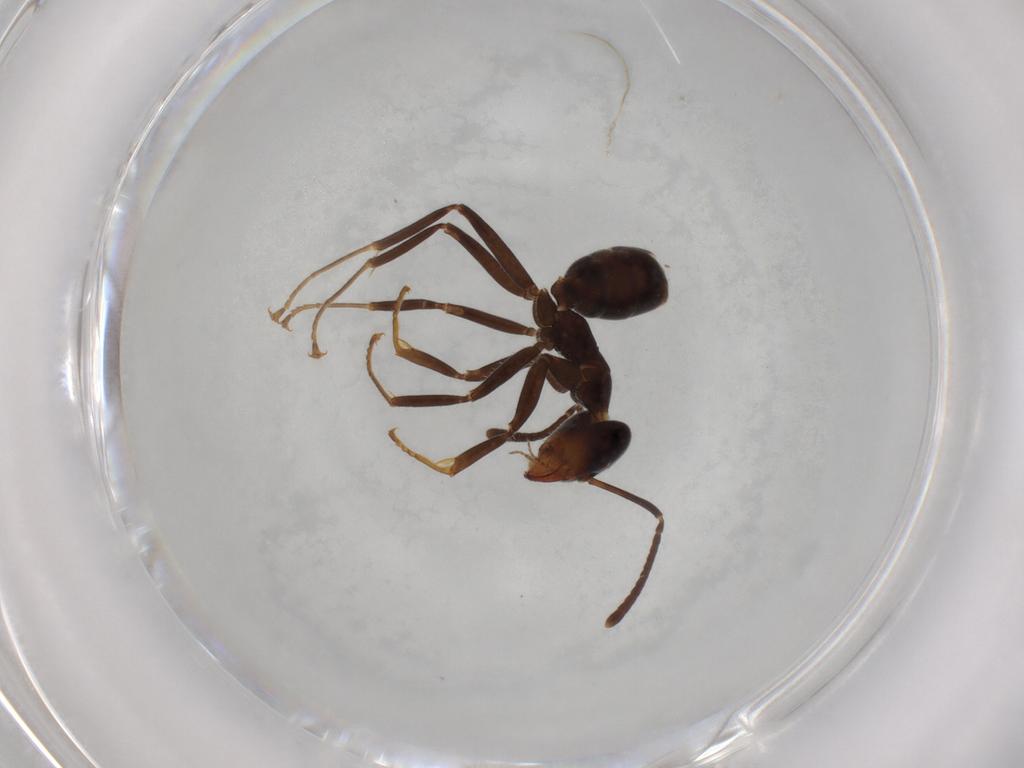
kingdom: Animalia
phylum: Arthropoda
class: Insecta
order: Hymenoptera
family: Formicidae
